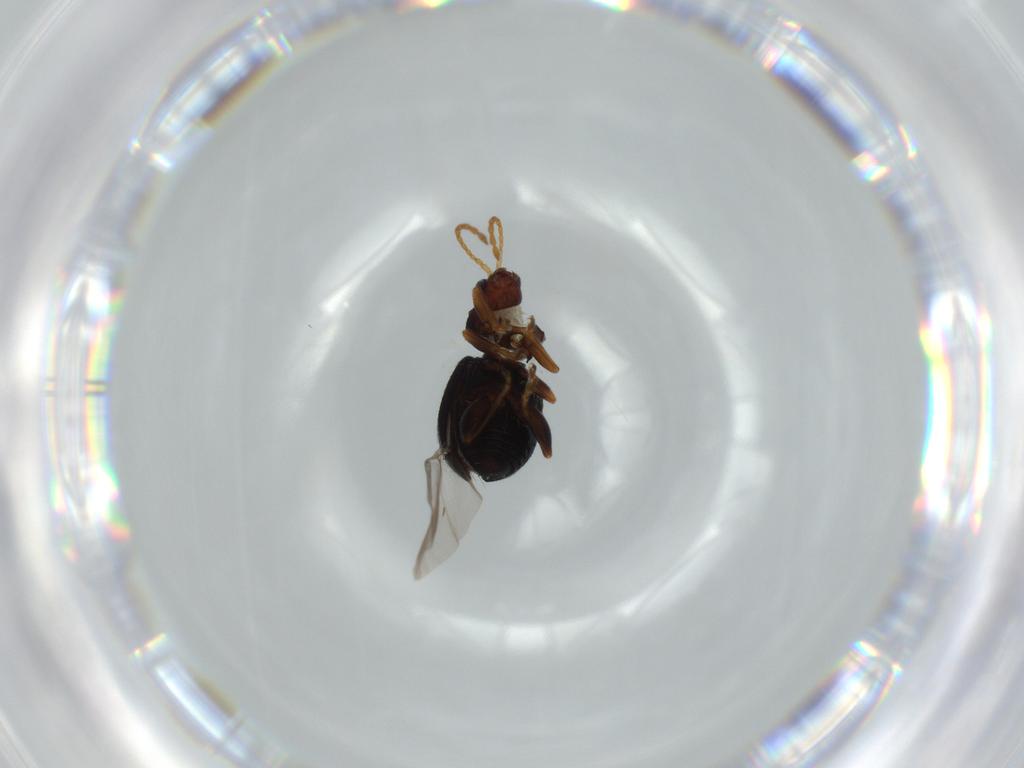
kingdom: Animalia
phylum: Arthropoda
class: Insecta
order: Coleoptera
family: Chrysomelidae
